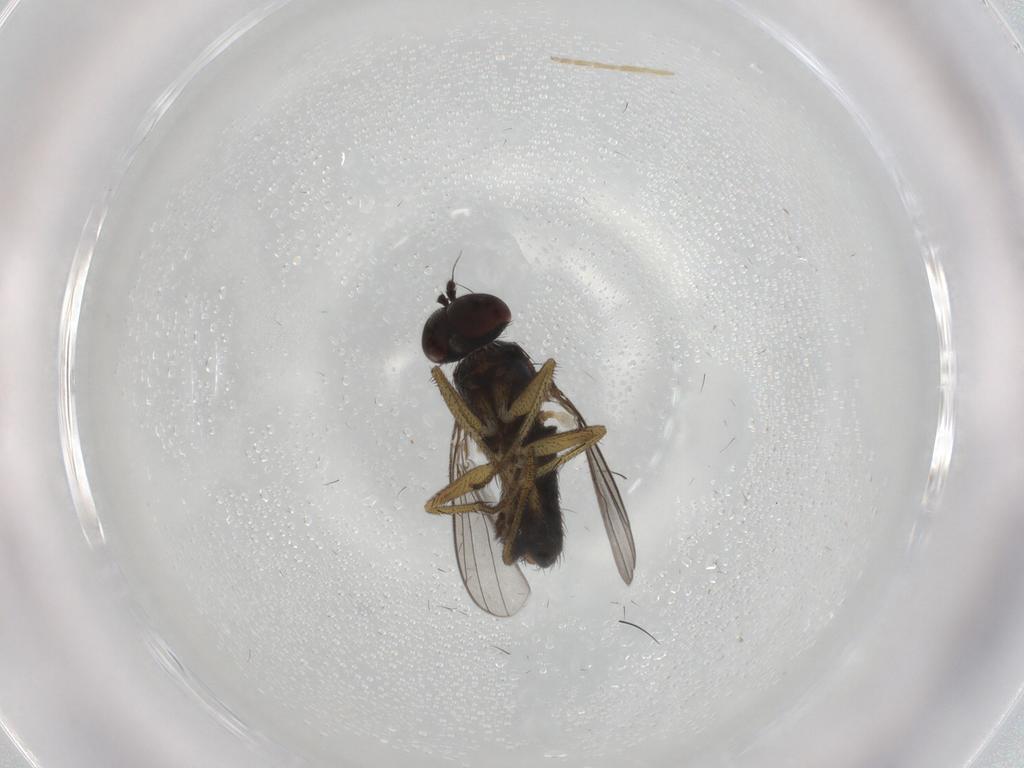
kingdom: Animalia
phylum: Arthropoda
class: Insecta
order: Diptera
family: Dolichopodidae
